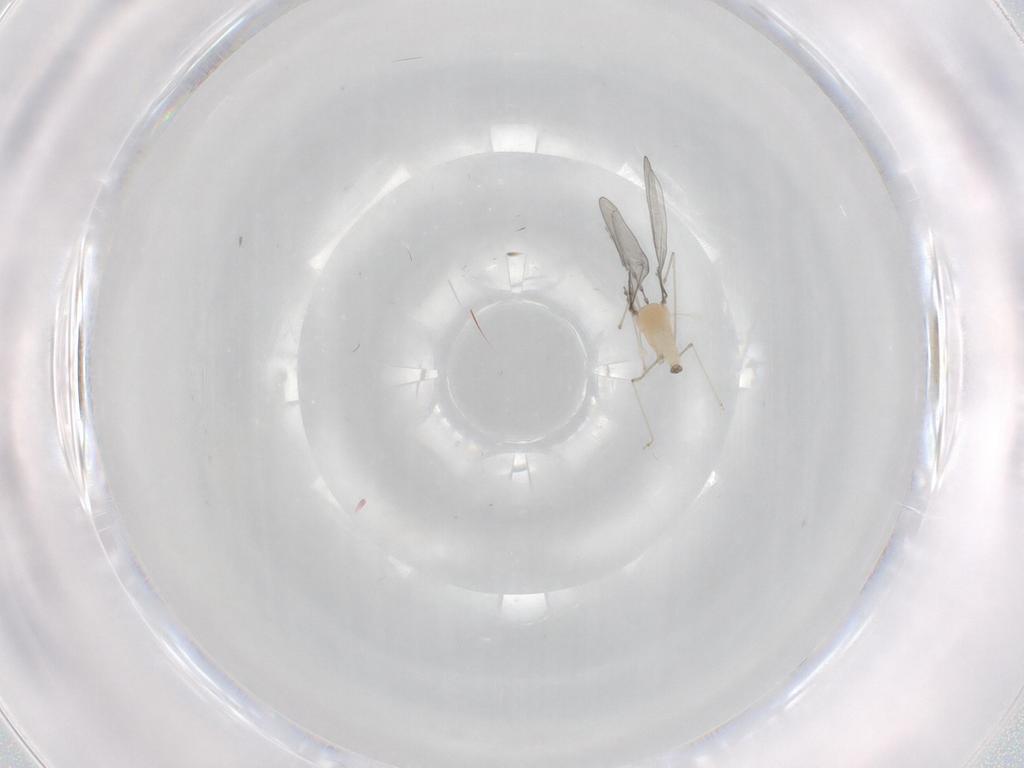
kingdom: Animalia
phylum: Arthropoda
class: Insecta
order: Diptera
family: Cecidomyiidae
